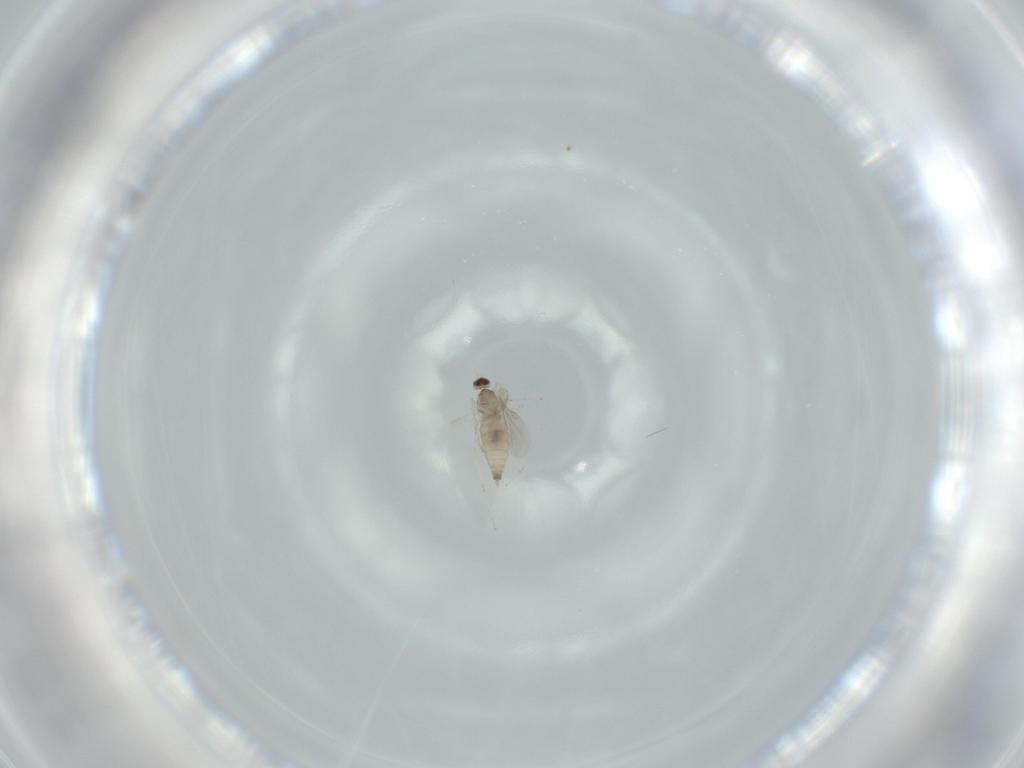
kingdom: Animalia
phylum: Arthropoda
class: Insecta
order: Diptera
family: Cecidomyiidae
